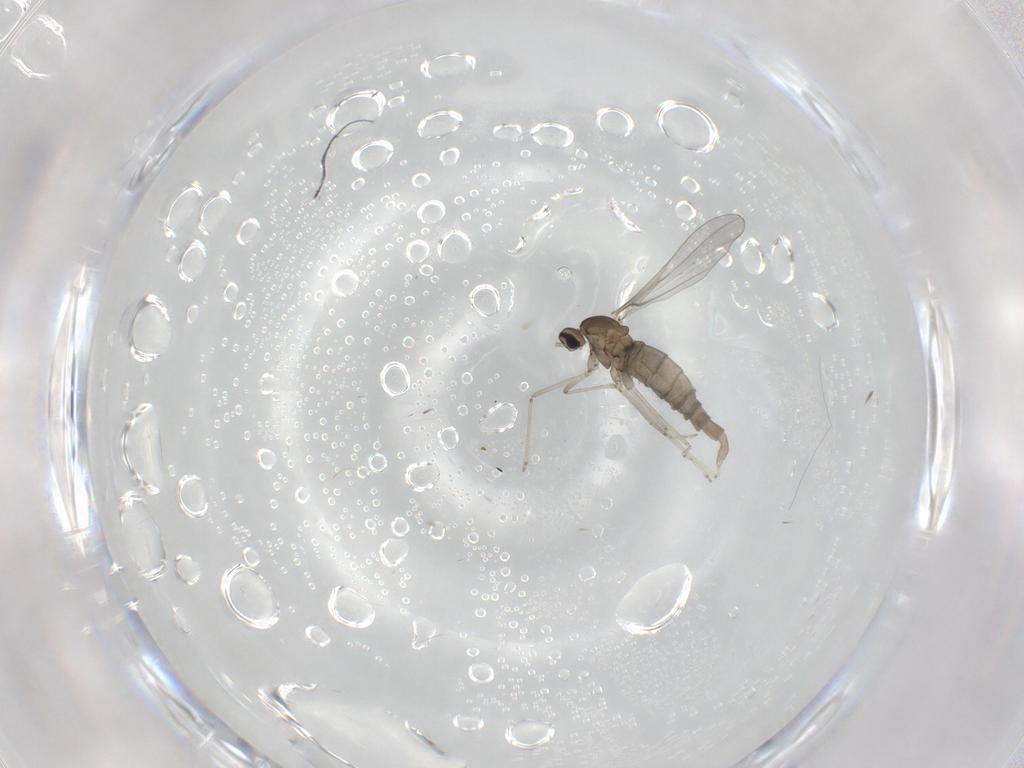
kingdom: Animalia
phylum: Arthropoda
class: Insecta
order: Diptera
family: Cecidomyiidae
